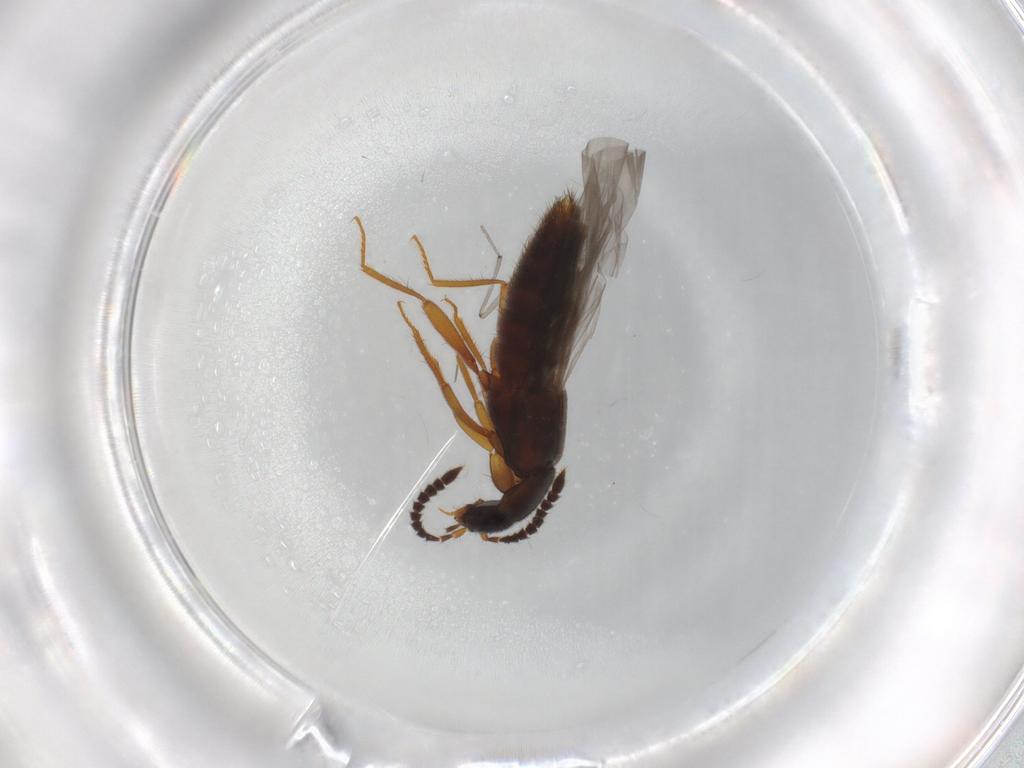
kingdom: Animalia
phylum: Arthropoda
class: Insecta
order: Coleoptera
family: Staphylinidae
